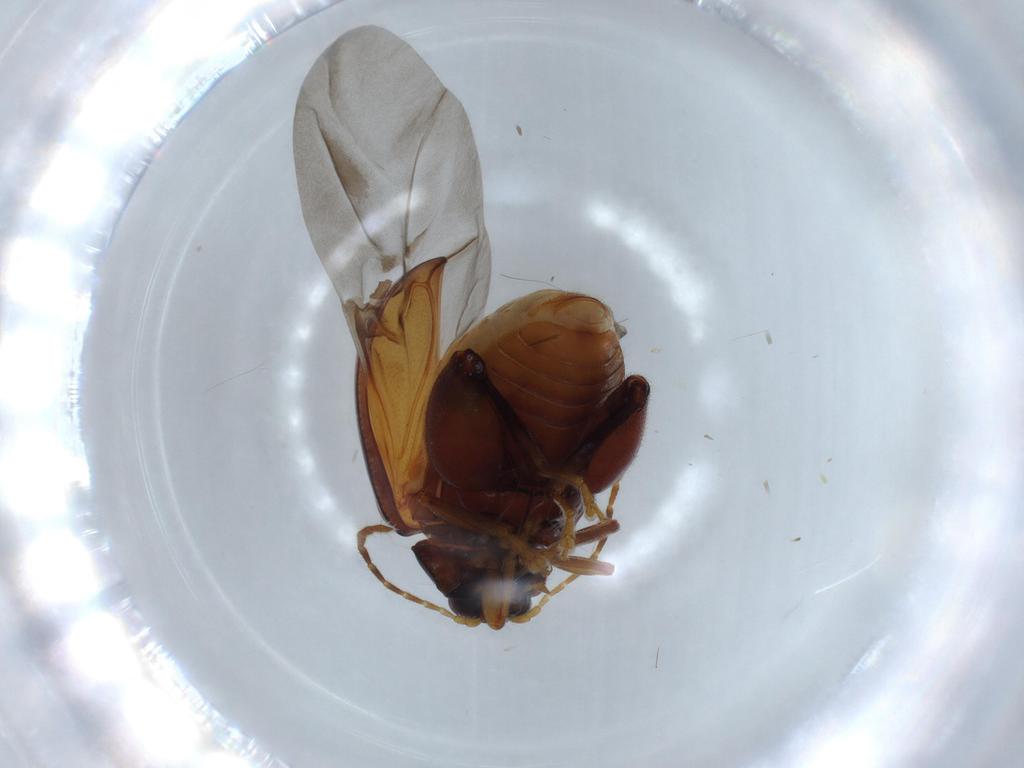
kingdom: Animalia
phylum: Arthropoda
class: Insecta
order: Coleoptera
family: Chrysomelidae
